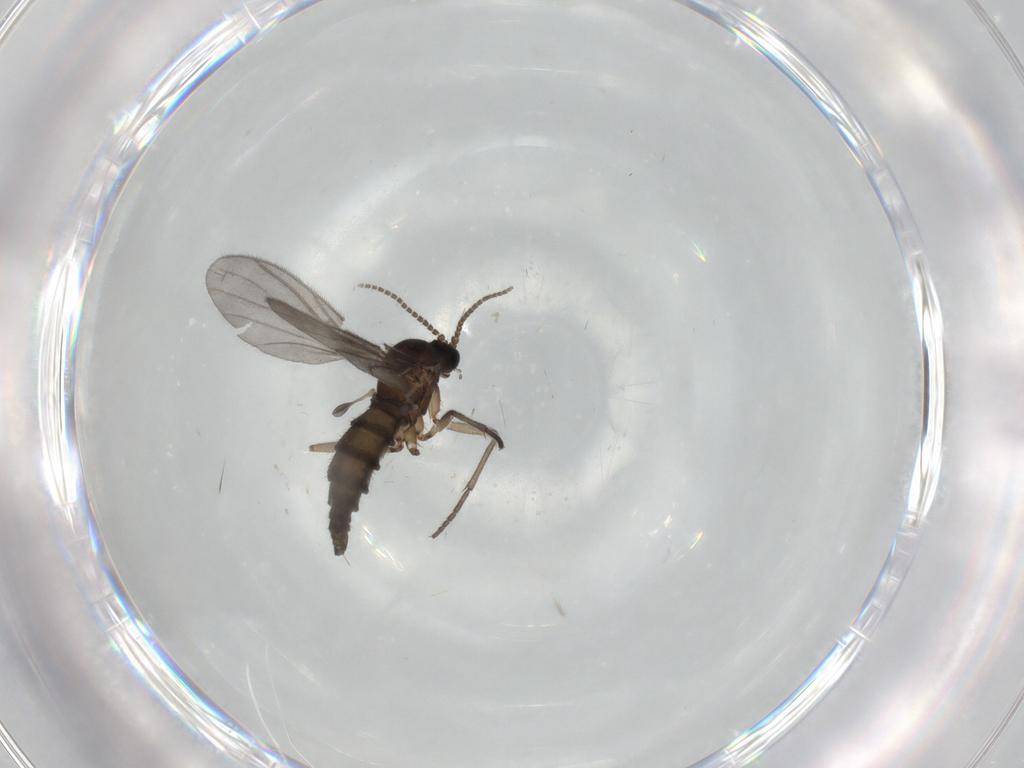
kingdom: Animalia
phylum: Arthropoda
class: Insecta
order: Diptera
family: Sciaridae
